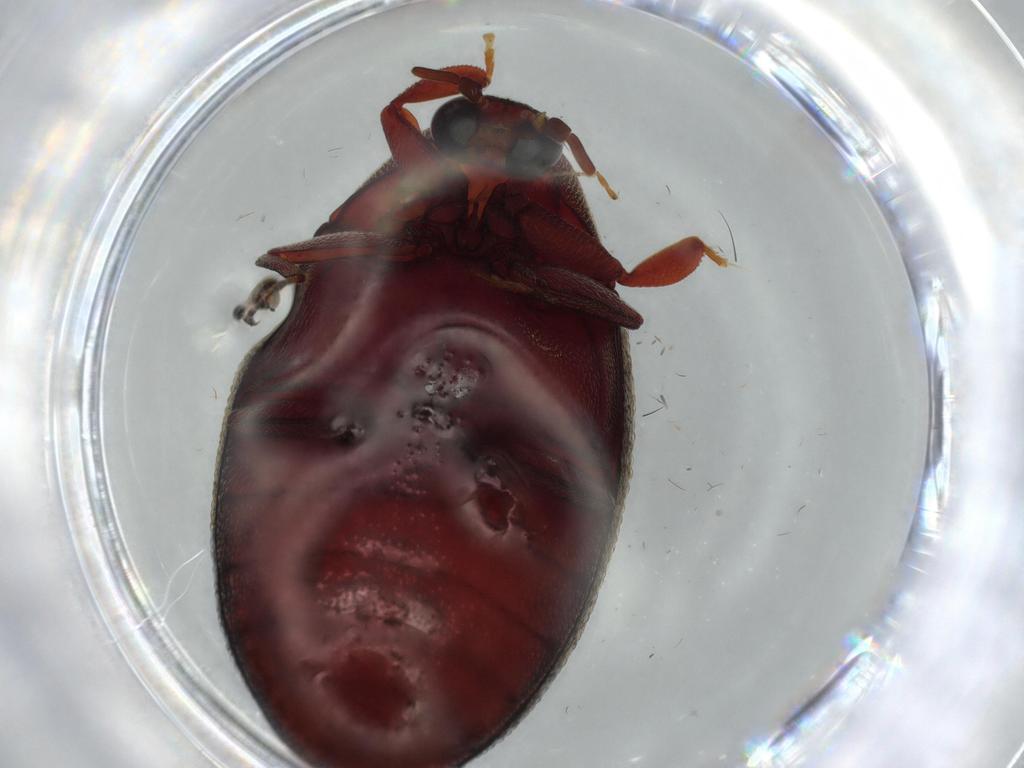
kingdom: Animalia
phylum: Arthropoda
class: Insecta
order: Coleoptera
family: Chelonariidae
